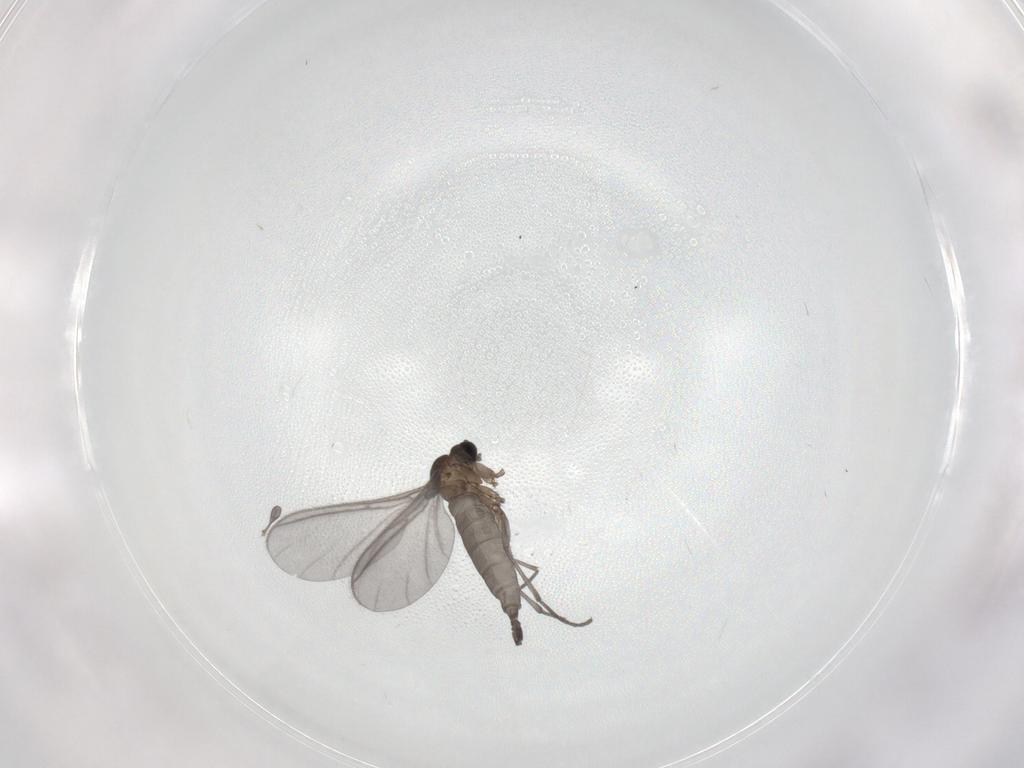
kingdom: Animalia
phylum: Arthropoda
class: Insecta
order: Diptera
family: Sciaridae
